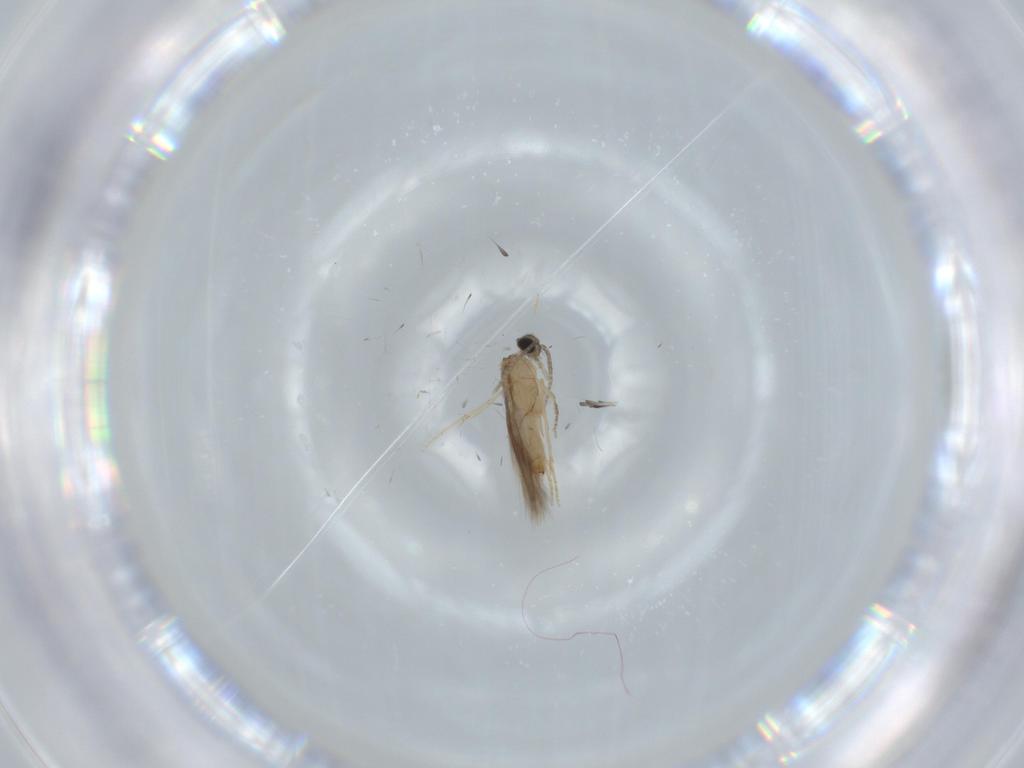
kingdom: Animalia
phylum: Arthropoda
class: Insecta
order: Trichoptera
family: Hydroptilidae
